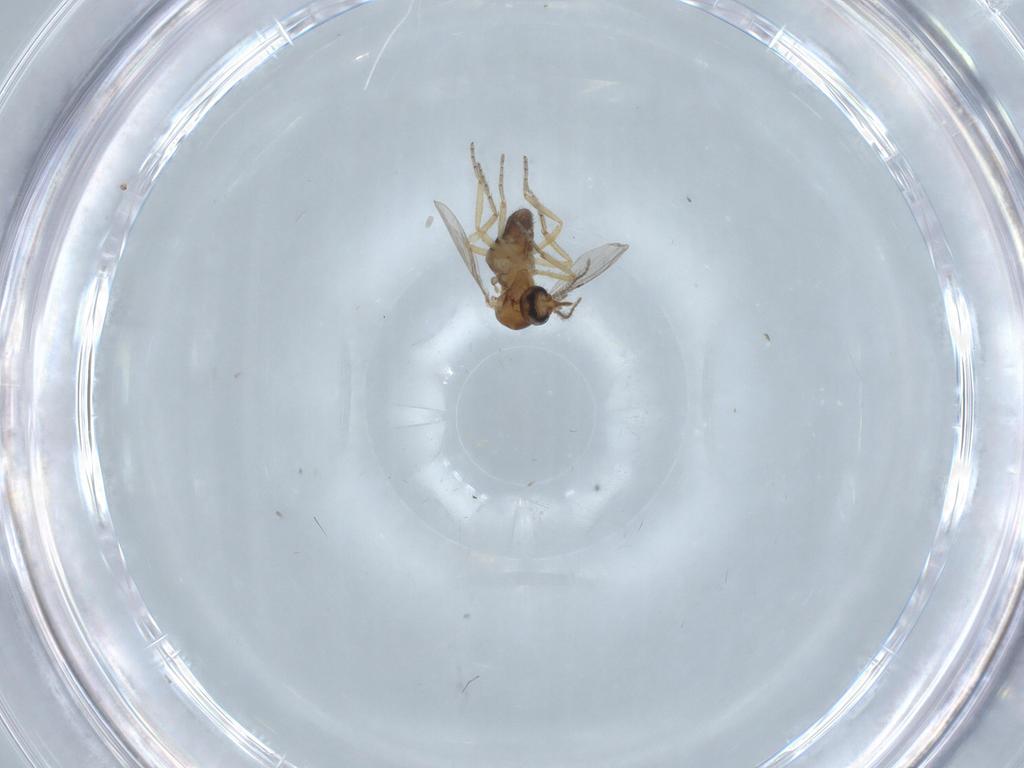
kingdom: Animalia
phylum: Arthropoda
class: Insecta
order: Diptera
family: Ceratopogonidae
